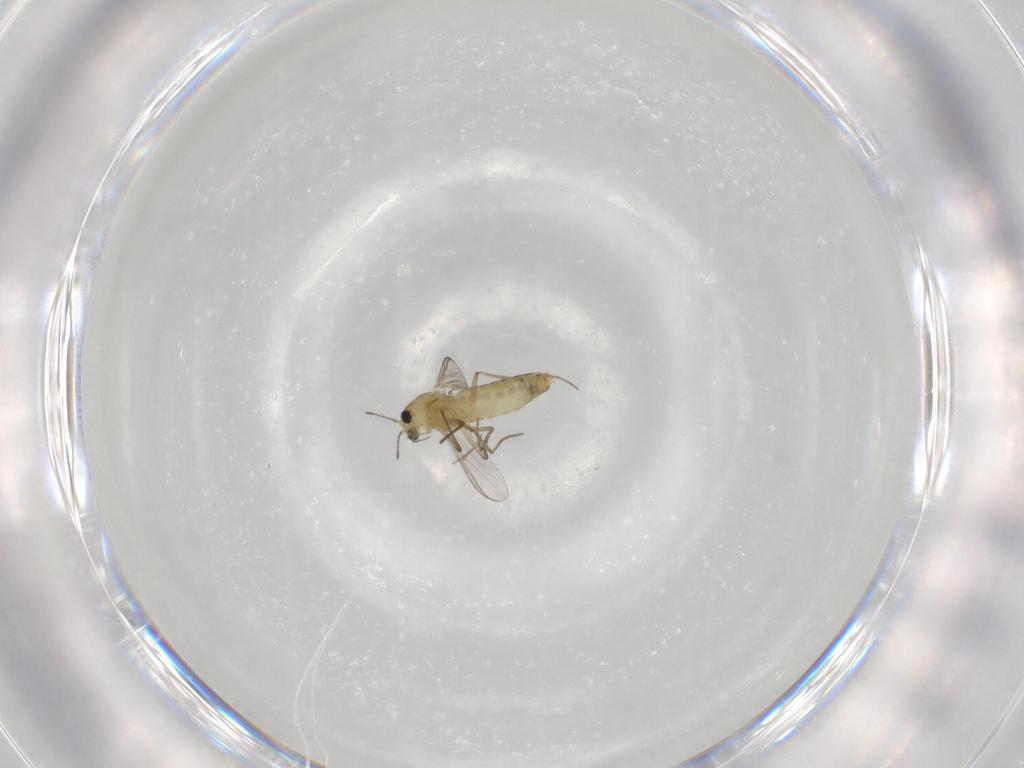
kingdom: Animalia
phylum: Arthropoda
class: Insecta
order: Diptera
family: Chironomidae
